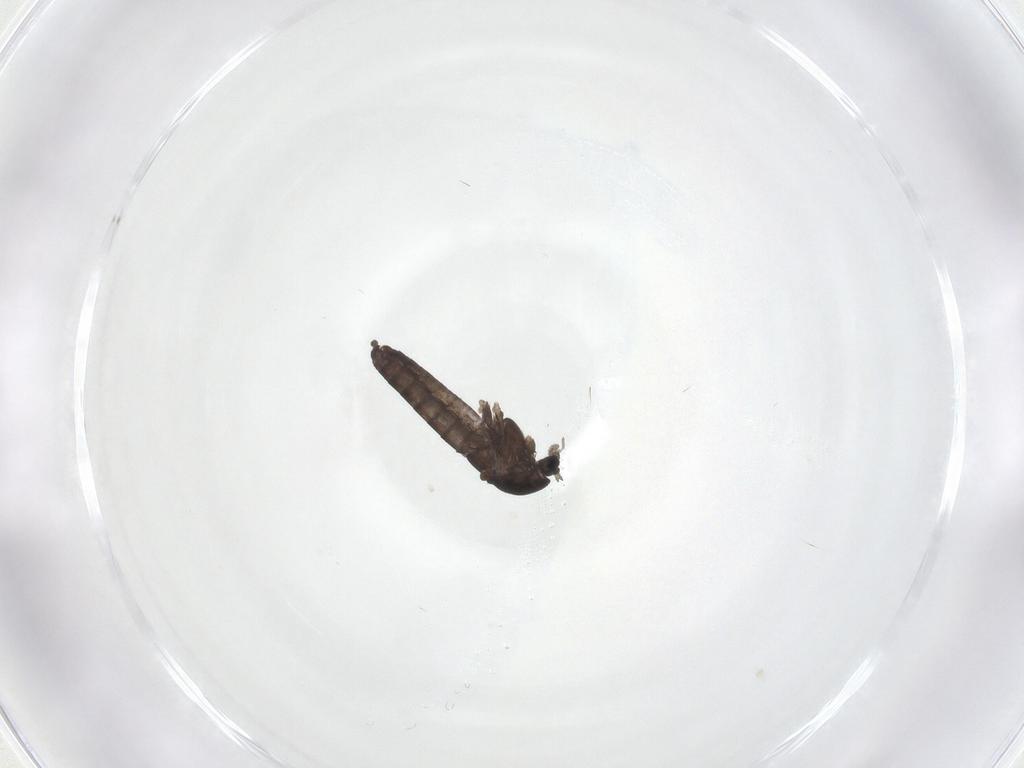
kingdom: Animalia
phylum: Arthropoda
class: Insecta
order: Diptera
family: Chironomidae
